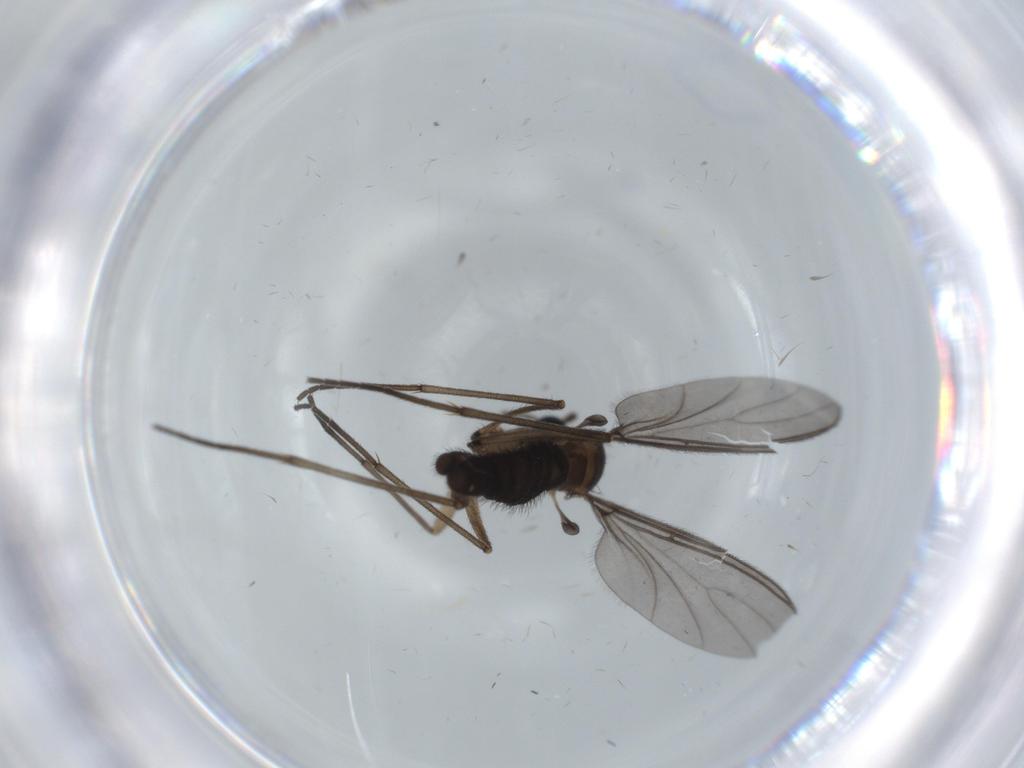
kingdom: Animalia
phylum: Arthropoda
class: Insecta
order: Diptera
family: Sciaridae
